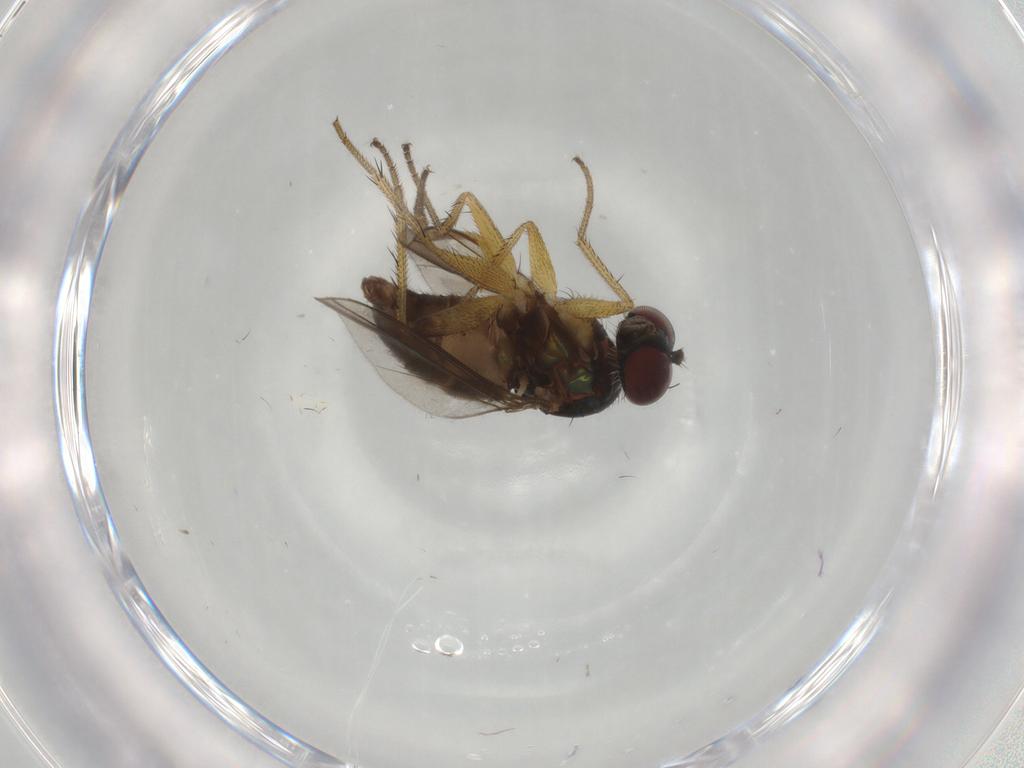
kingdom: Animalia
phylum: Arthropoda
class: Insecta
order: Diptera
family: Dolichopodidae
